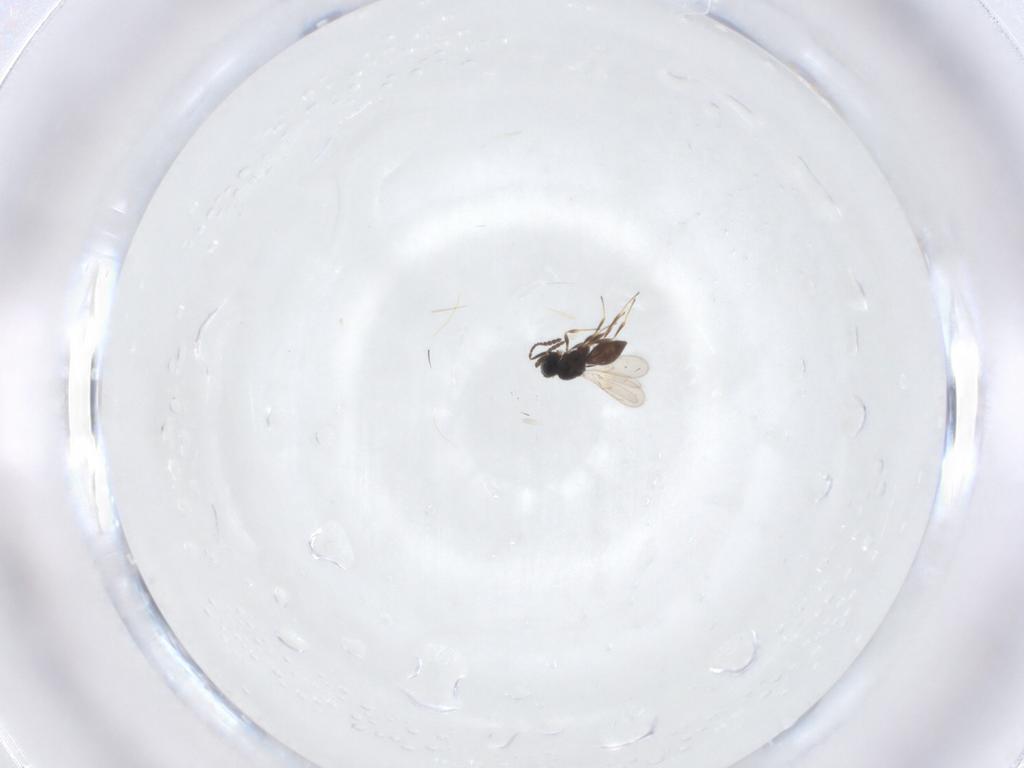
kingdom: Animalia
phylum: Arthropoda
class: Insecta
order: Hymenoptera
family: Scelionidae
